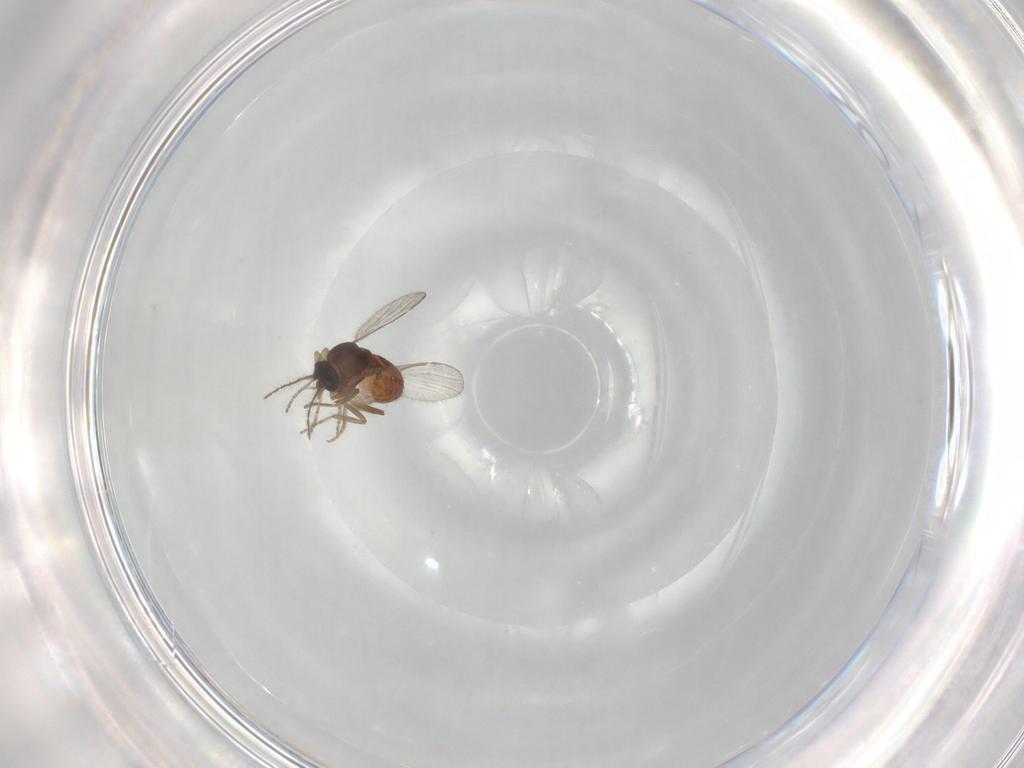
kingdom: Animalia
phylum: Arthropoda
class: Insecta
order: Diptera
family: Ceratopogonidae
